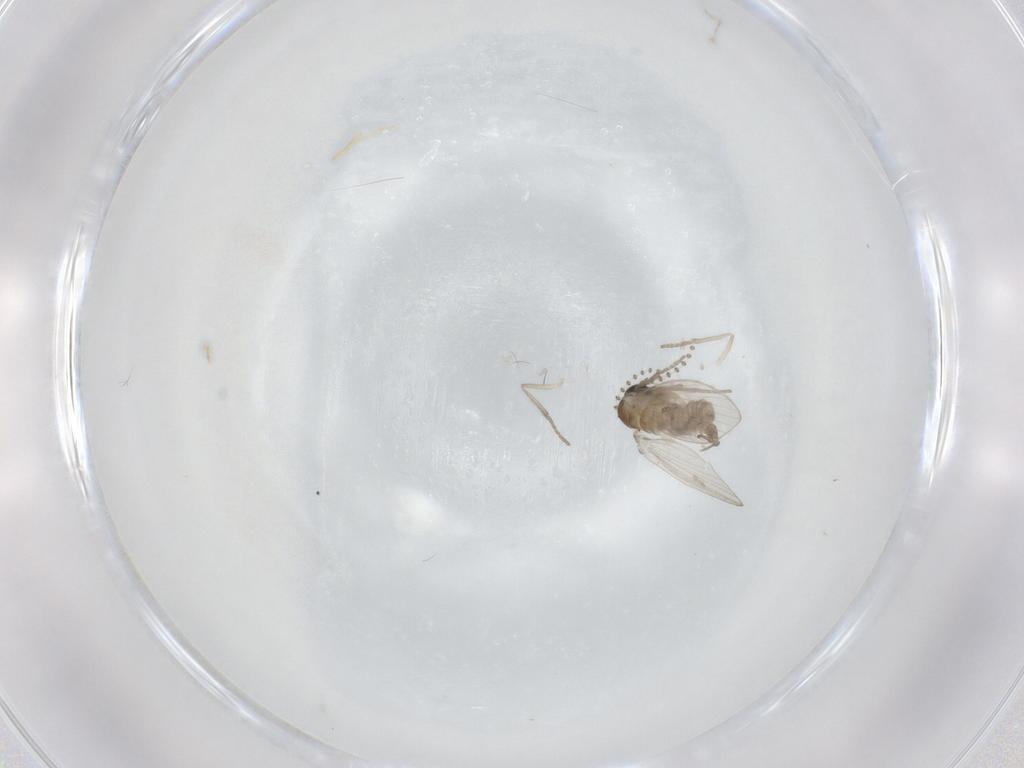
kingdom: Animalia
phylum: Arthropoda
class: Insecta
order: Diptera
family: Psychodidae
